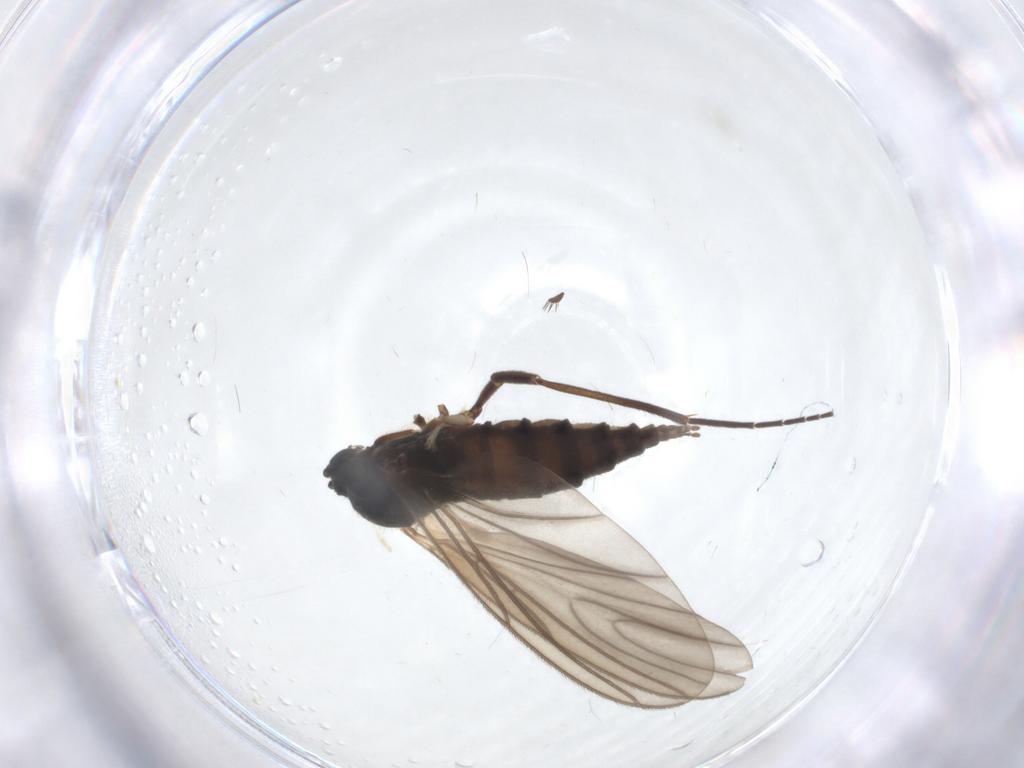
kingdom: Animalia
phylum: Arthropoda
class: Insecta
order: Diptera
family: Sciaridae
